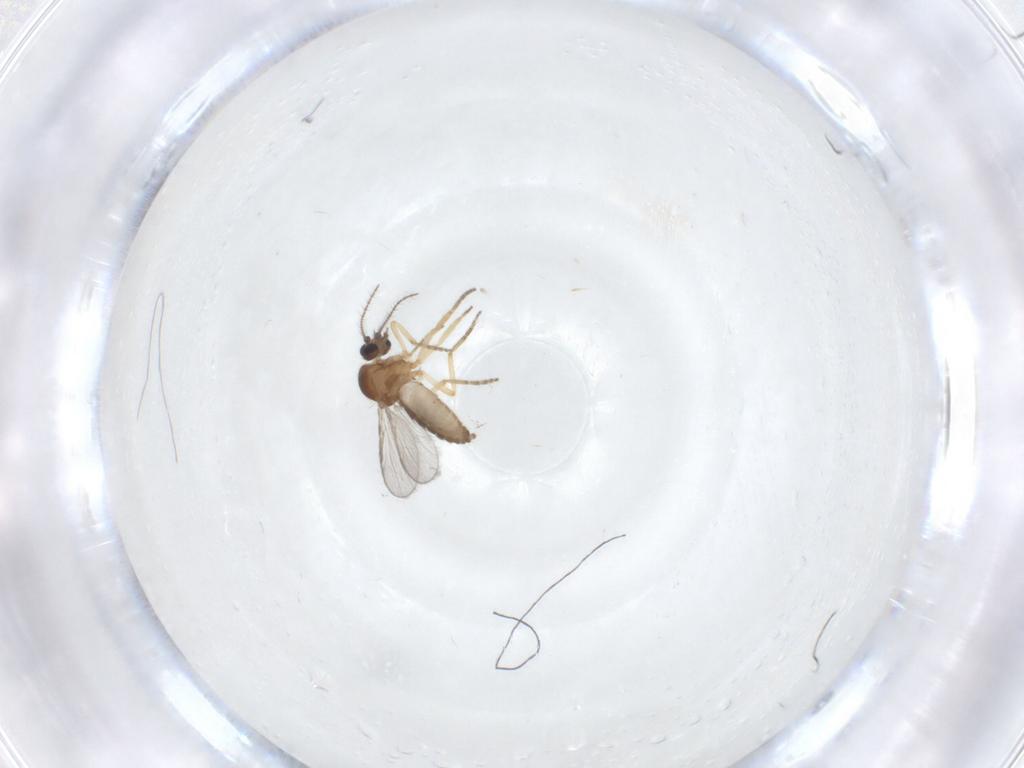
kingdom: Animalia
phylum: Arthropoda
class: Insecta
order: Diptera
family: Ceratopogonidae
